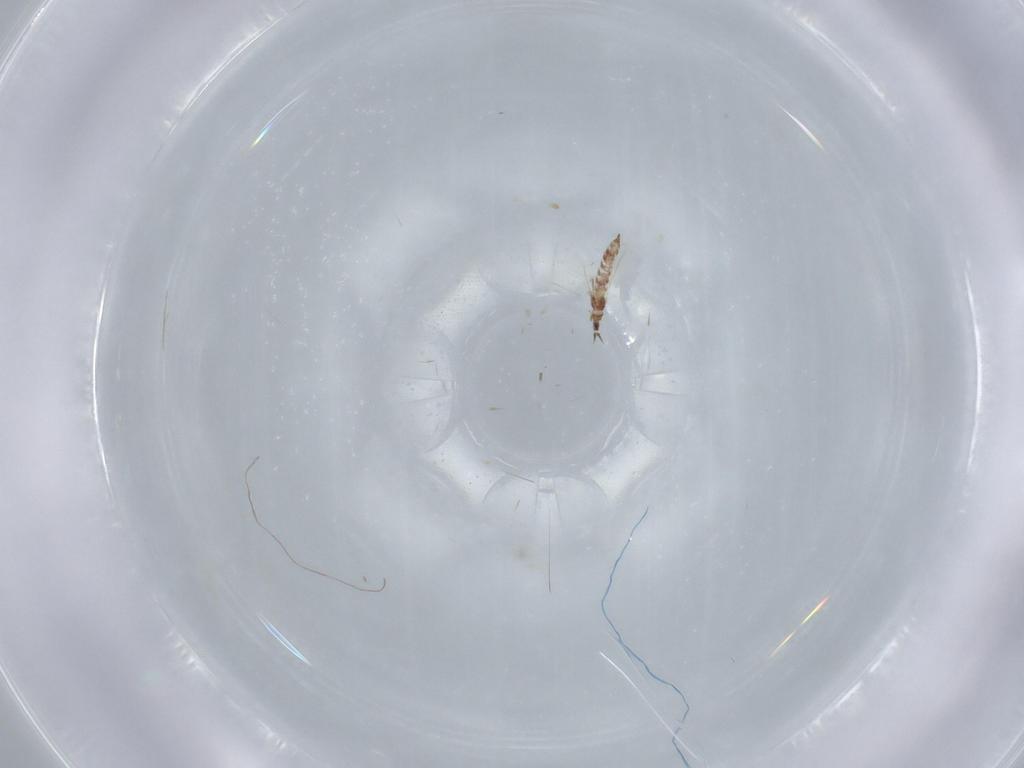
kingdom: Animalia
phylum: Arthropoda
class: Insecta
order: Thysanoptera
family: Phlaeothripidae
